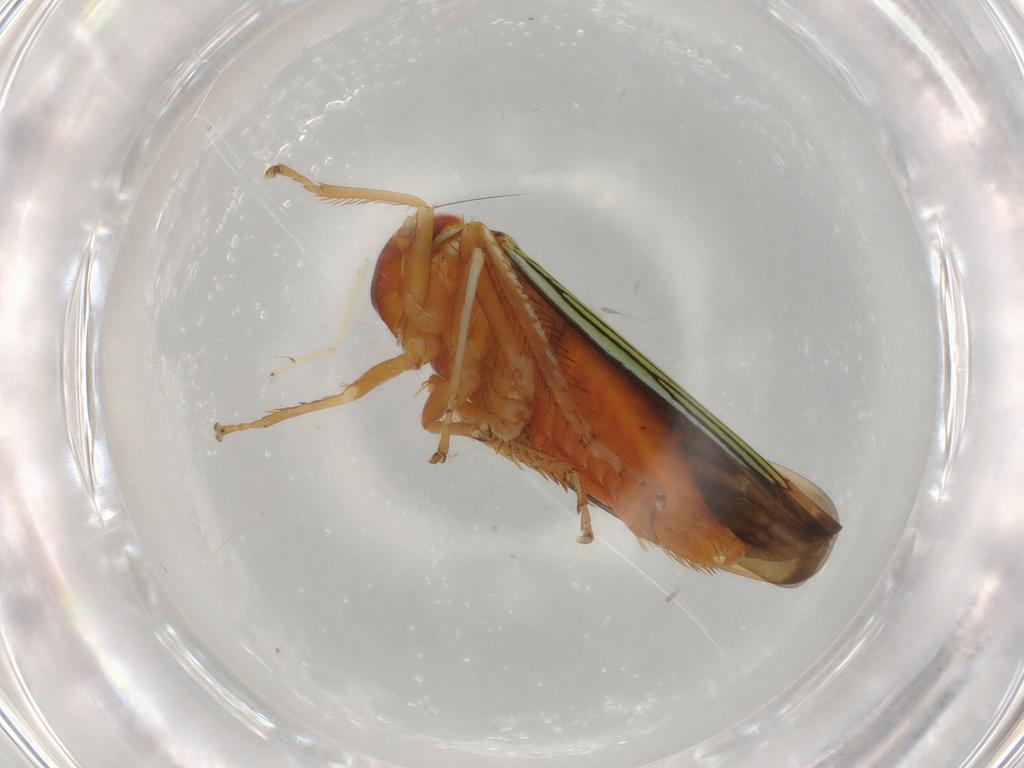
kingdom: Animalia
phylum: Arthropoda
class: Insecta
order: Hemiptera
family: Cicadellidae
